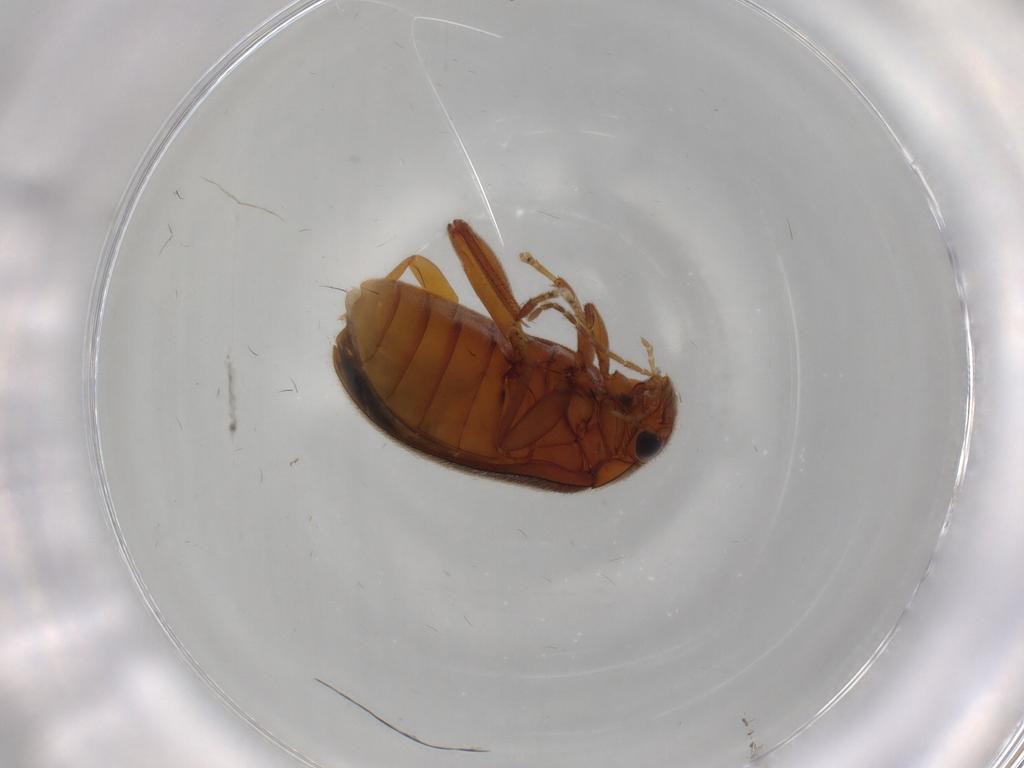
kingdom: Animalia
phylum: Arthropoda
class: Insecta
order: Coleoptera
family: Scirtidae
